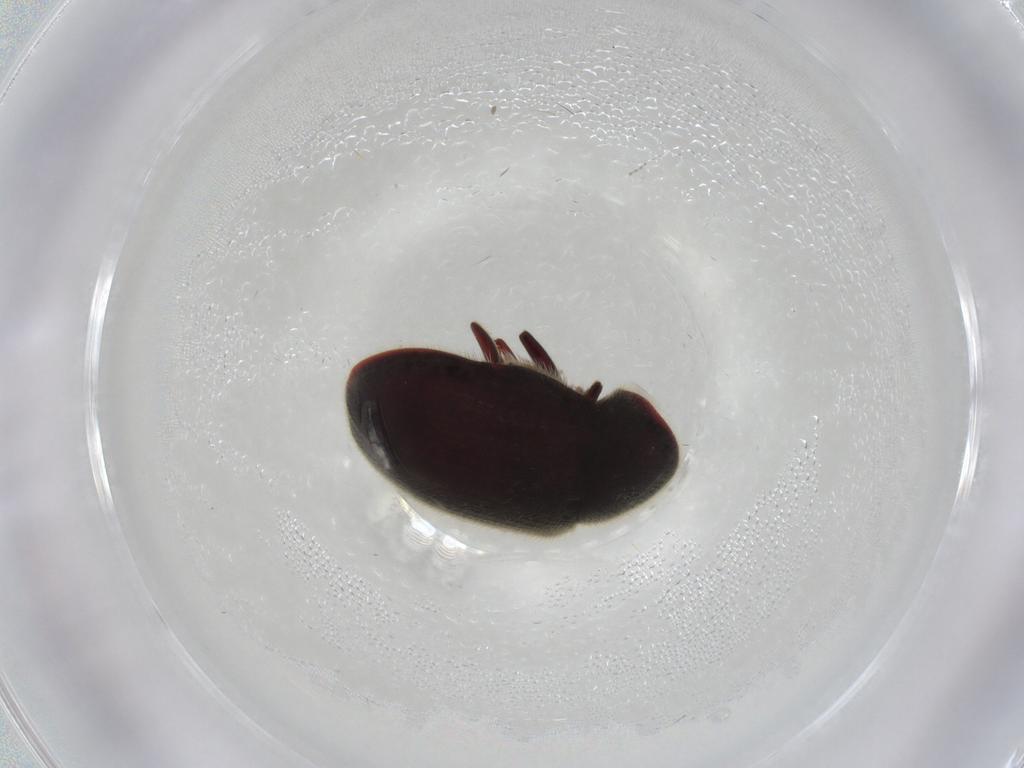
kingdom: Animalia
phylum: Arthropoda
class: Insecta
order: Coleoptera
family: Ptinidae
